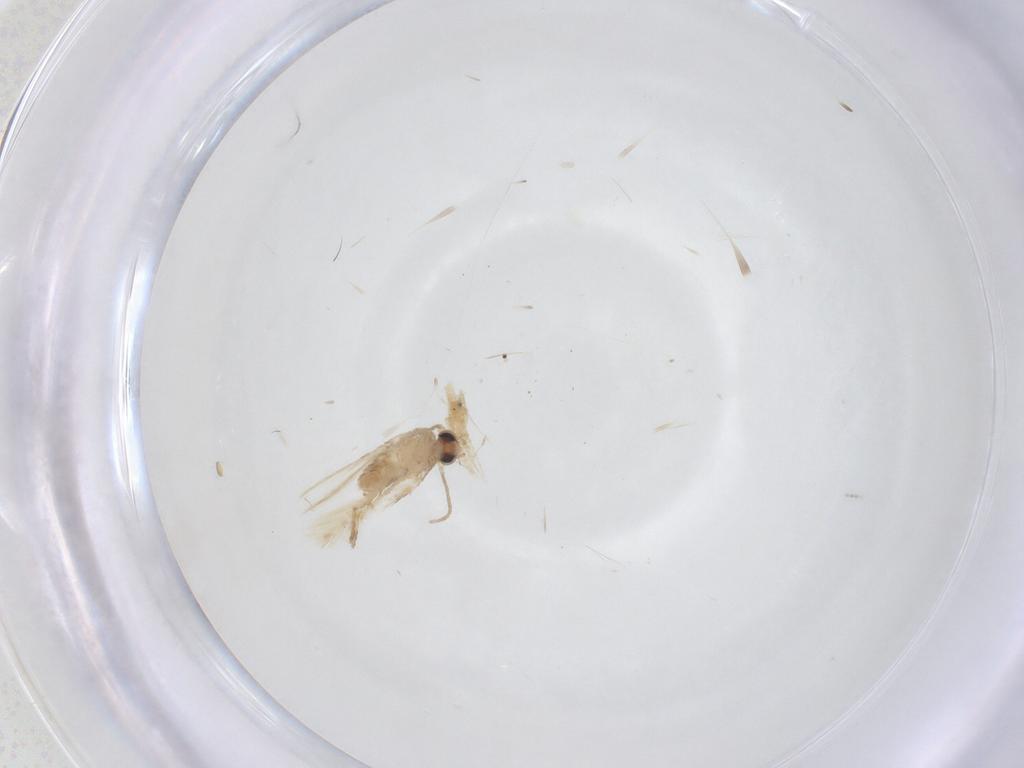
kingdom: Animalia
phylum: Arthropoda
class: Insecta
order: Lepidoptera
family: Nepticulidae
